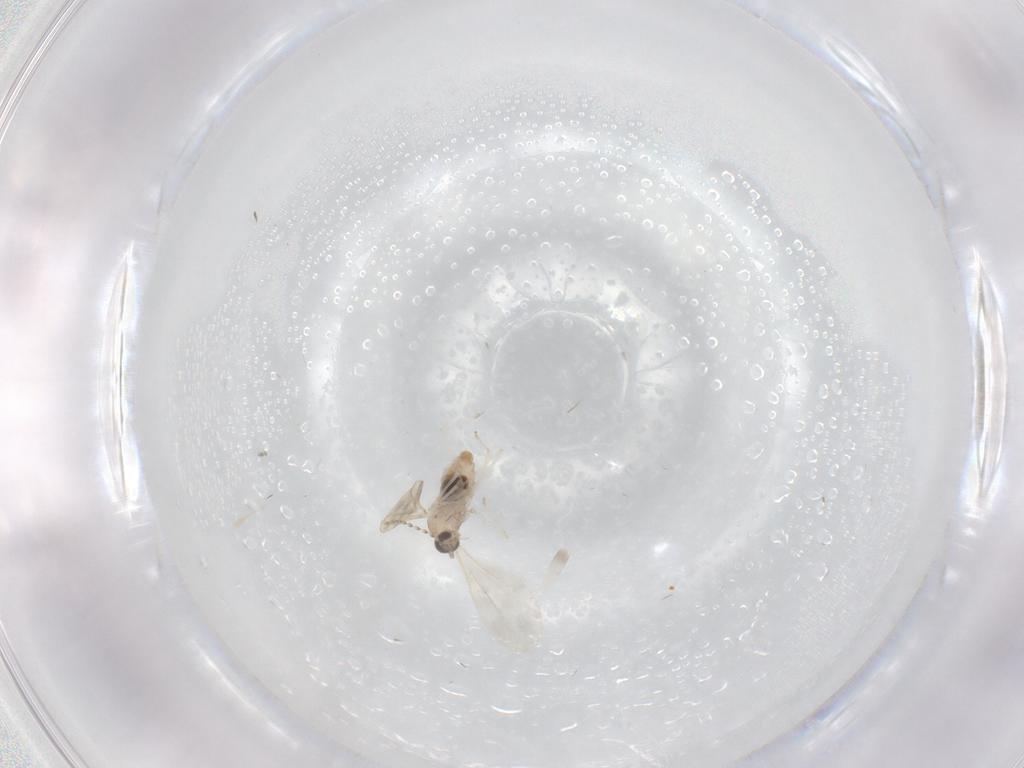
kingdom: Animalia
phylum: Arthropoda
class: Insecta
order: Diptera
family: Cecidomyiidae
